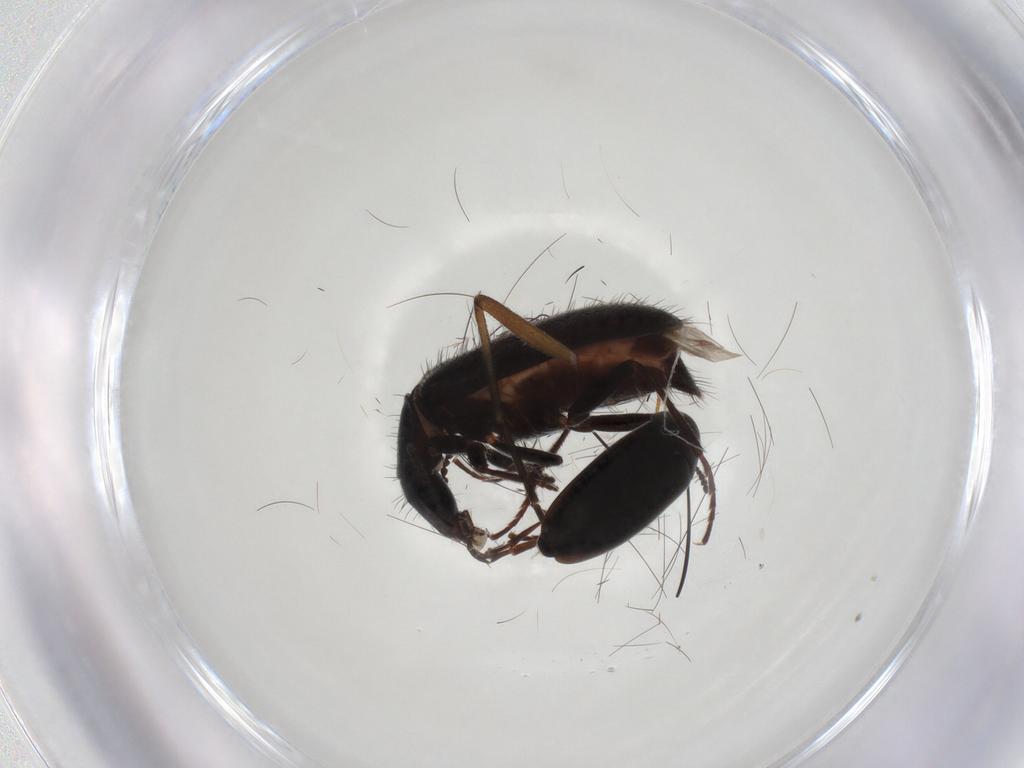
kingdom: Animalia
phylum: Arthropoda
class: Insecta
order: Coleoptera
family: Melyridae
